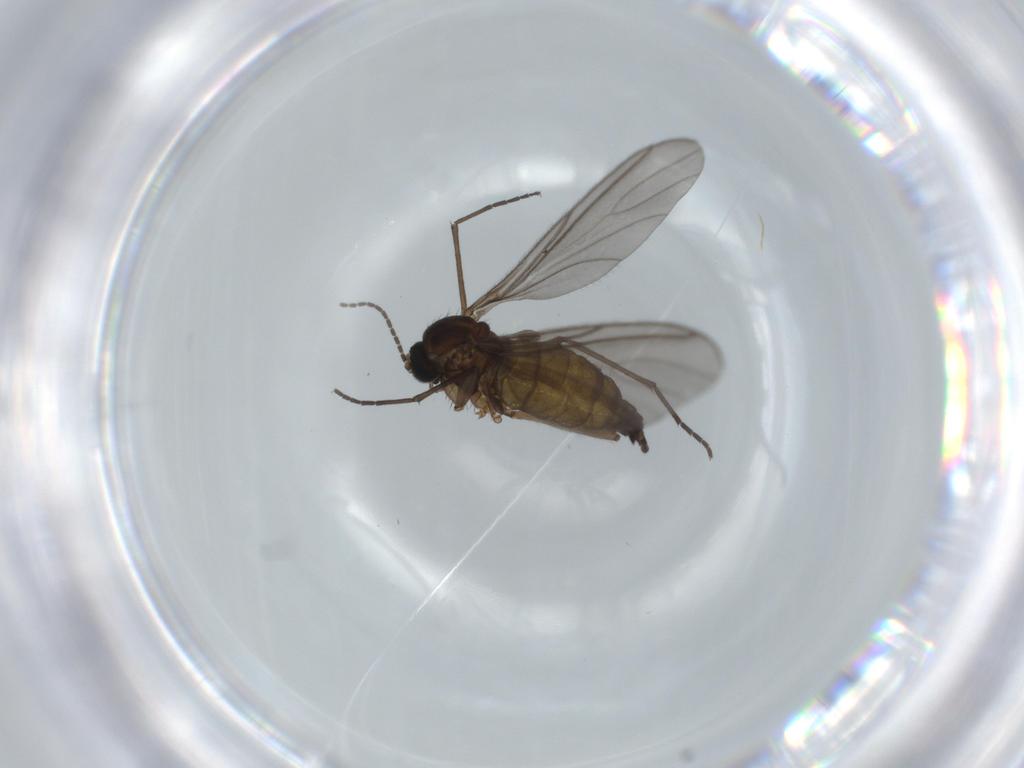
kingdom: Animalia
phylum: Arthropoda
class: Insecta
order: Diptera
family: Sciaridae
